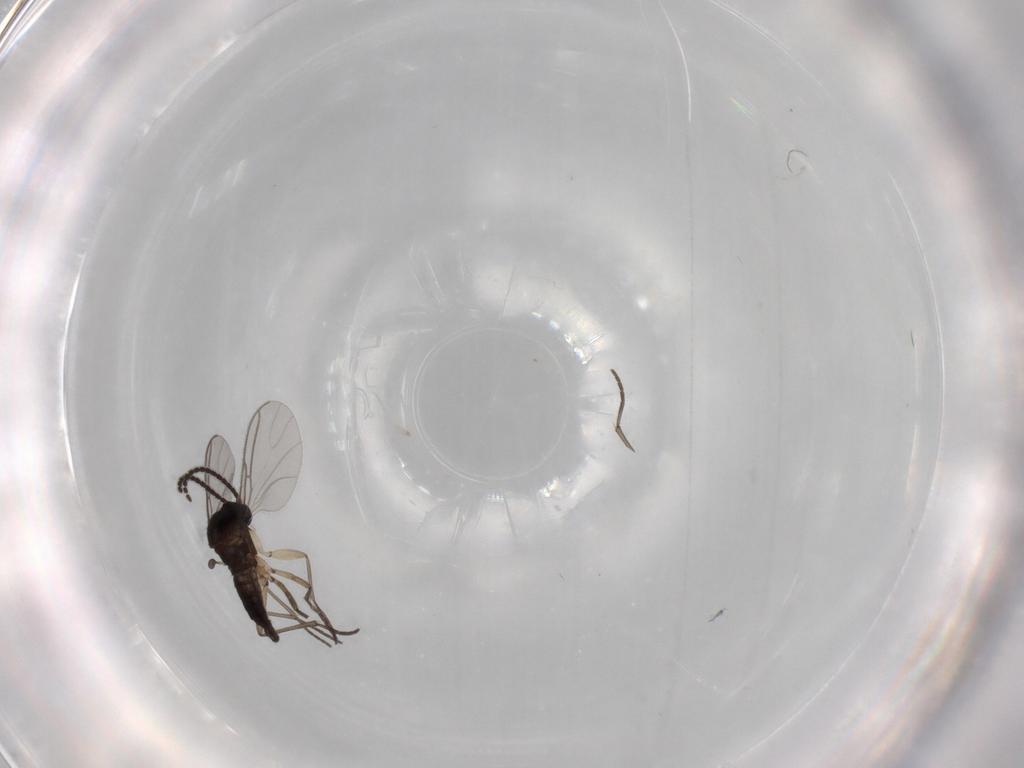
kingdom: Animalia
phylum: Arthropoda
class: Insecta
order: Diptera
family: Sciaridae
